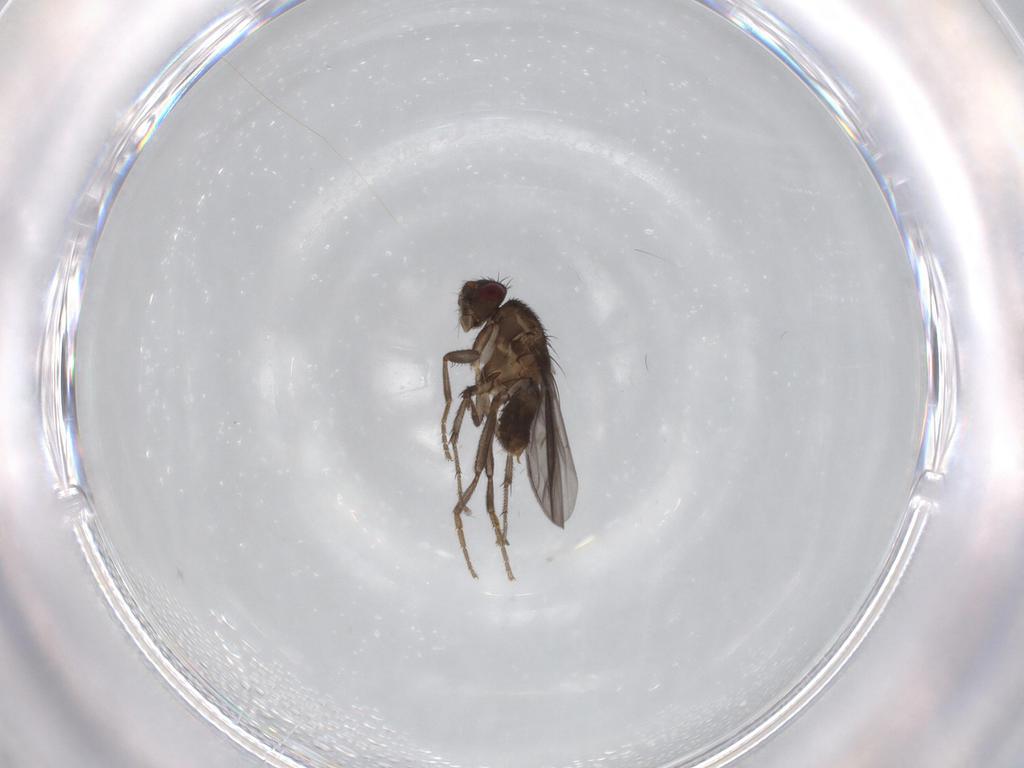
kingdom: Animalia
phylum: Arthropoda
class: Insecta
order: Diptera
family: Sphaeroceridae
